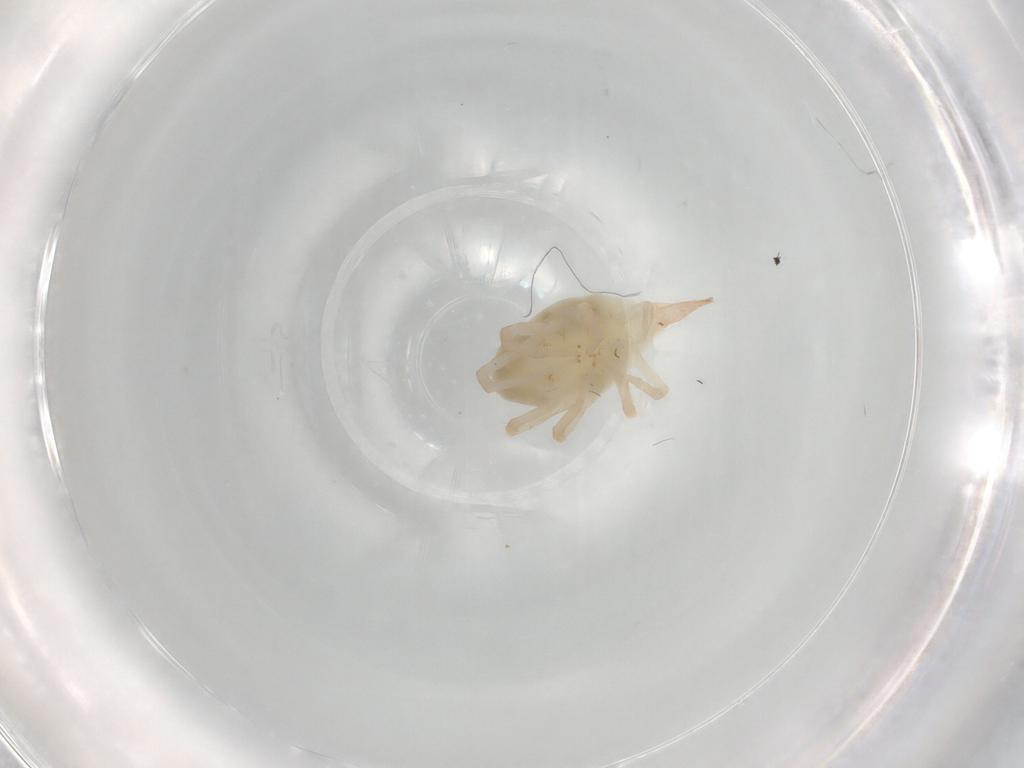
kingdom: Animalia
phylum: Arthropoda
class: Arachnida
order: Trombidiformes
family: Bdellidae
